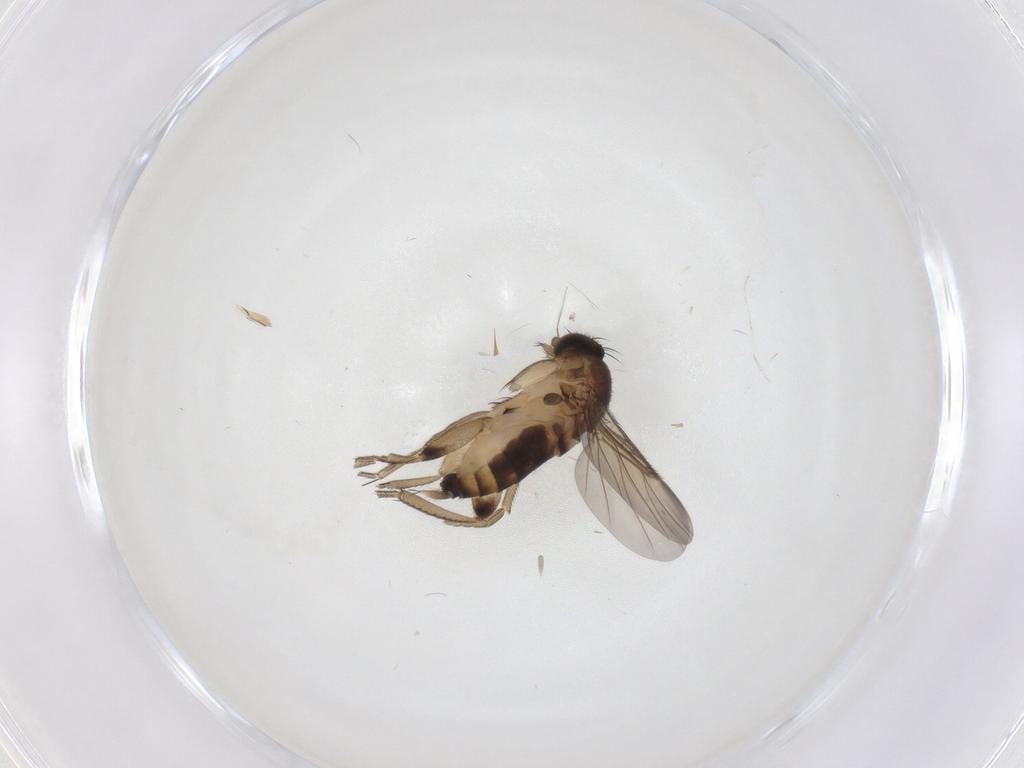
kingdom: Animalia
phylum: Arthropoda
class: Insecta
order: Diptera
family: Phoridae
